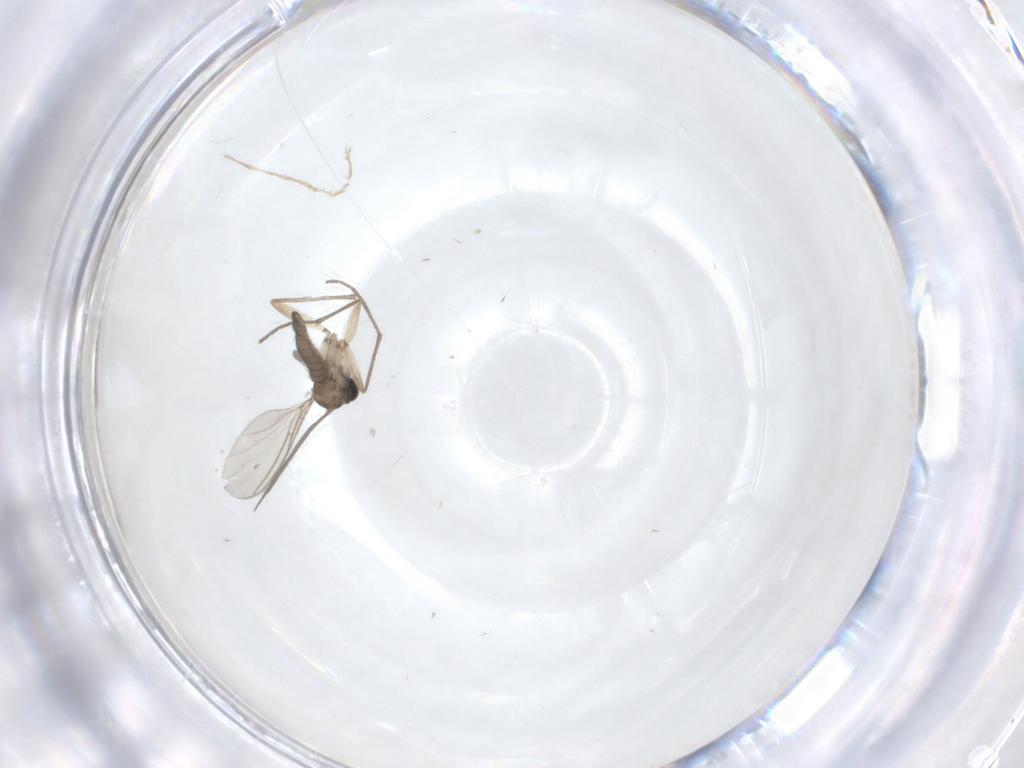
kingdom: Animalia
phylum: Arthropoda
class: Insecta
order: Diptera
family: Sciaridae
